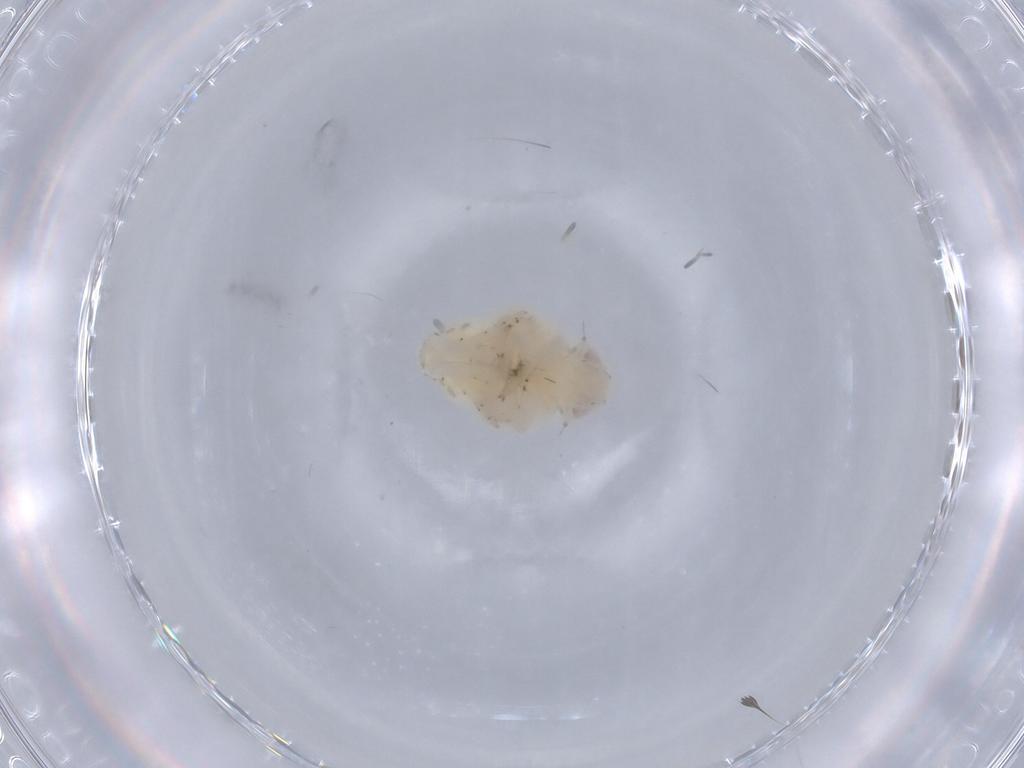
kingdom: Animalia
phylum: Arthropoda
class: Insecta
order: Hemiptera
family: Nogodinidae
